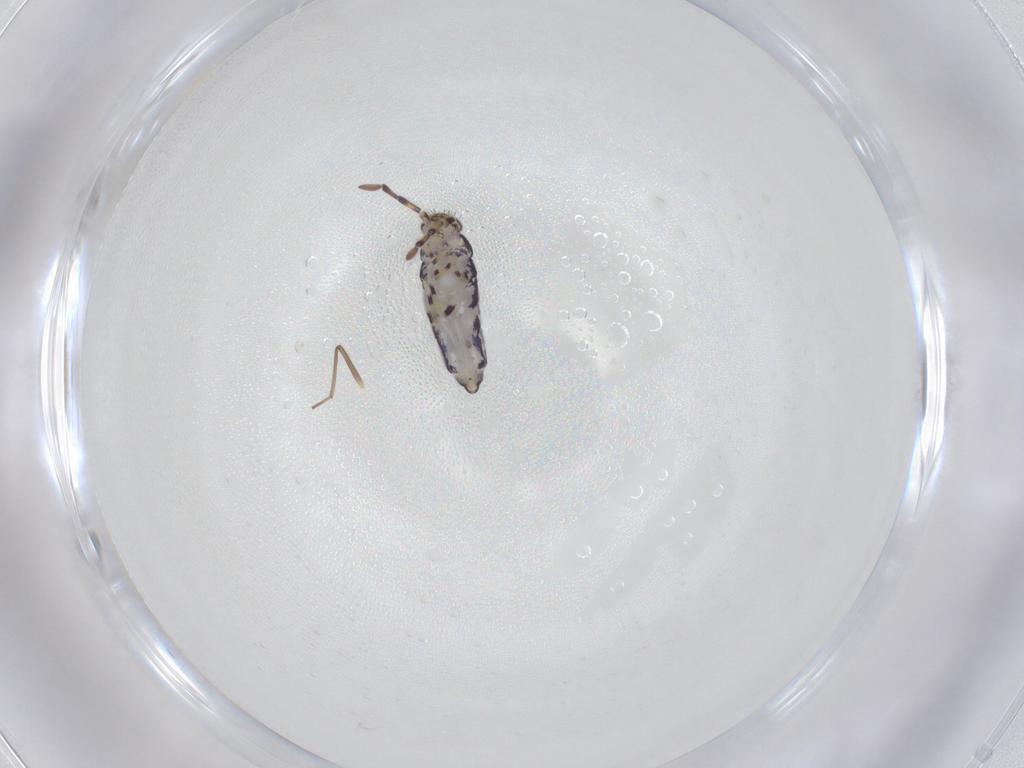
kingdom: Animalia
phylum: Arthropoda
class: Collembola
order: Entomobryomorpha
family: Entomobryidae
